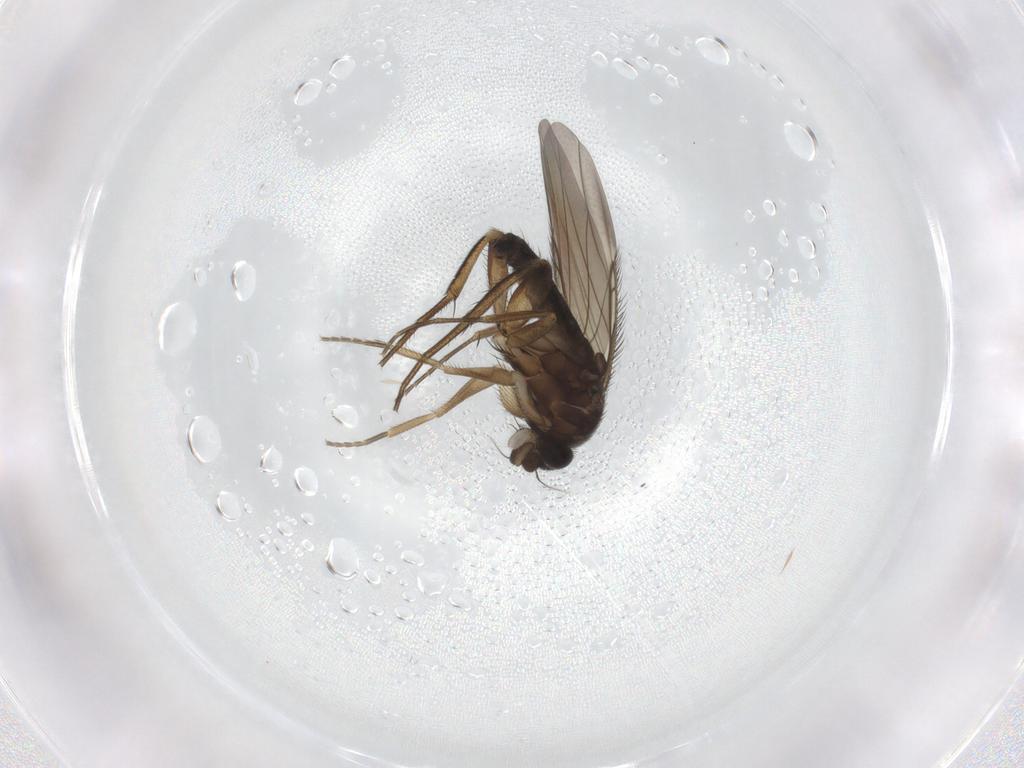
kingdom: Animalia
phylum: Arthropoda
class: Insecta
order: Diptera
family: Phoridae
